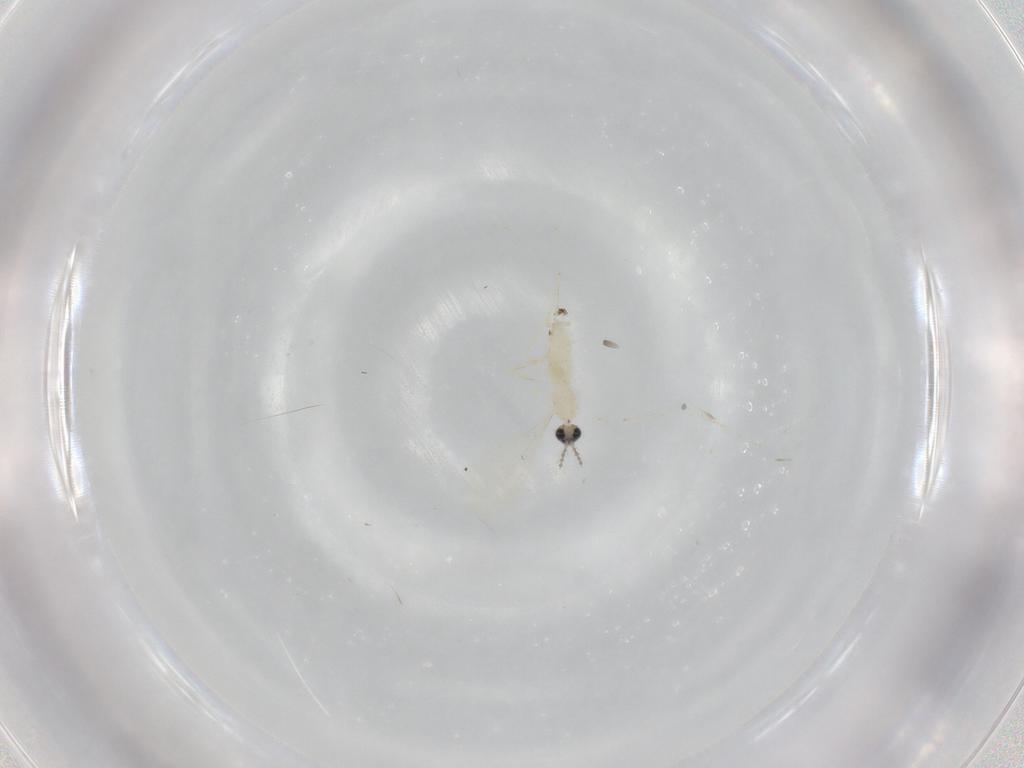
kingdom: Animalia
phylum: Arthropoda
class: Insecta
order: Diptera
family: Cecidomyiidae
